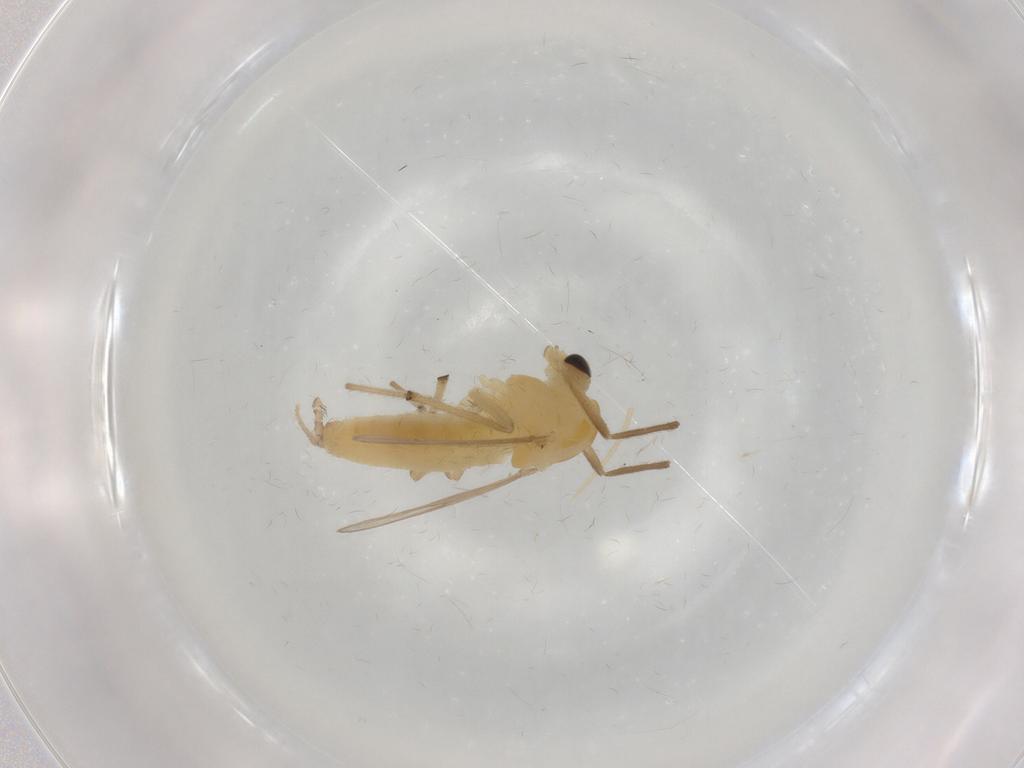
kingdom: Animalia
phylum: Arthropoda
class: Insecta
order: Diptera
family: Chironomidae
